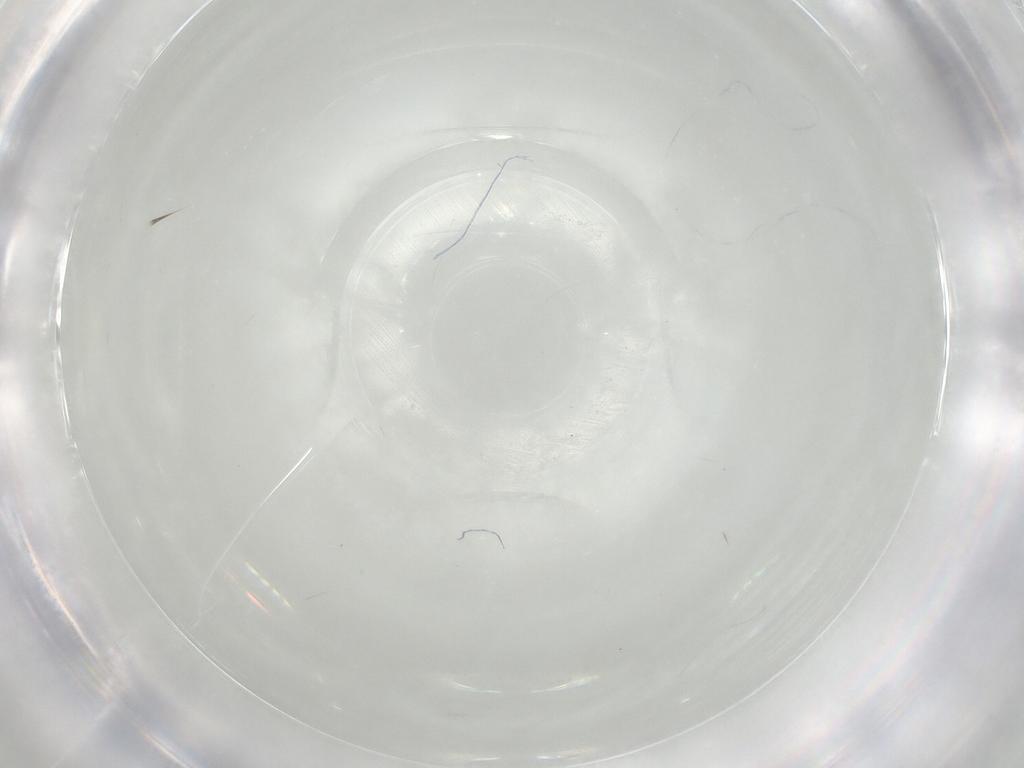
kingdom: Animalia
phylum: Arthropoda
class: Collembola
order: Entomobryomorpha
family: Entomobryidae
